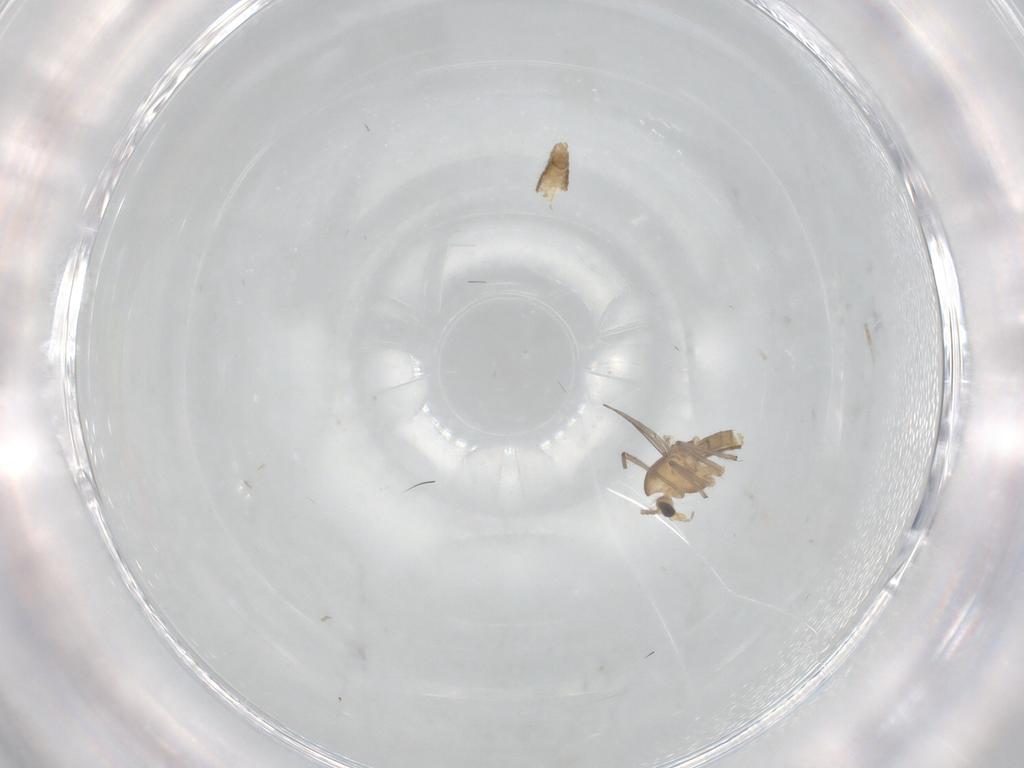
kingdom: Animalia
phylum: Arthropoda
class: Insecta
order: Diptera
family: Chironomidae
